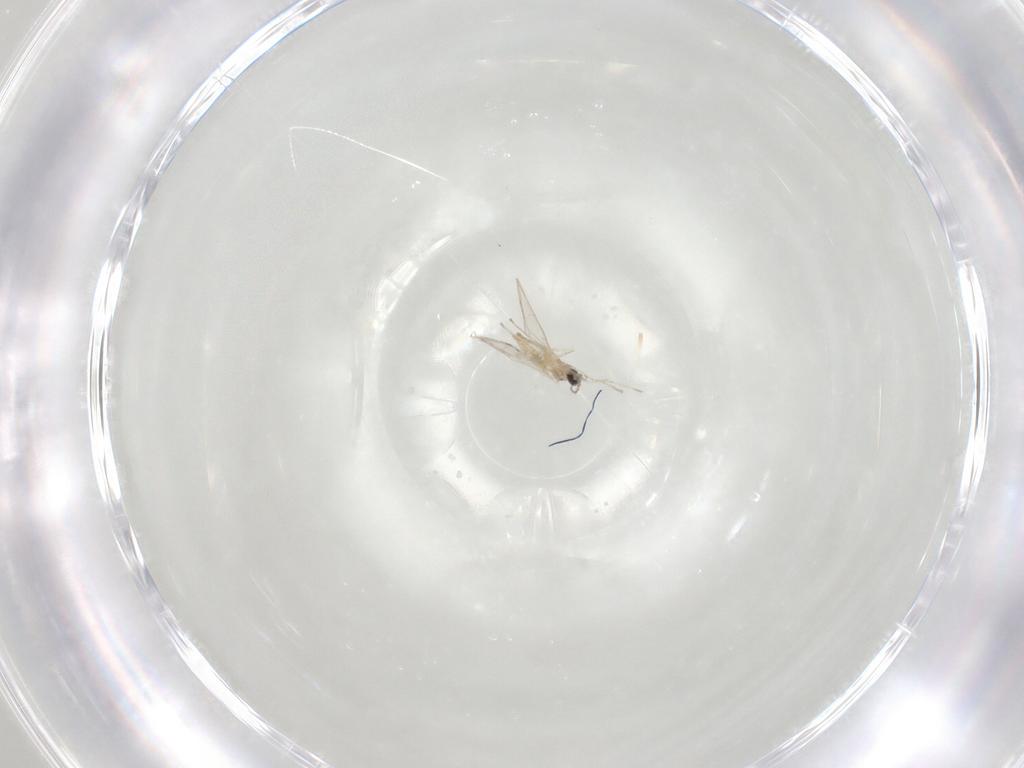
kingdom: Animalia
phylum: Arthropoda
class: Insecta
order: Diptera
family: Cecidomyiidae
